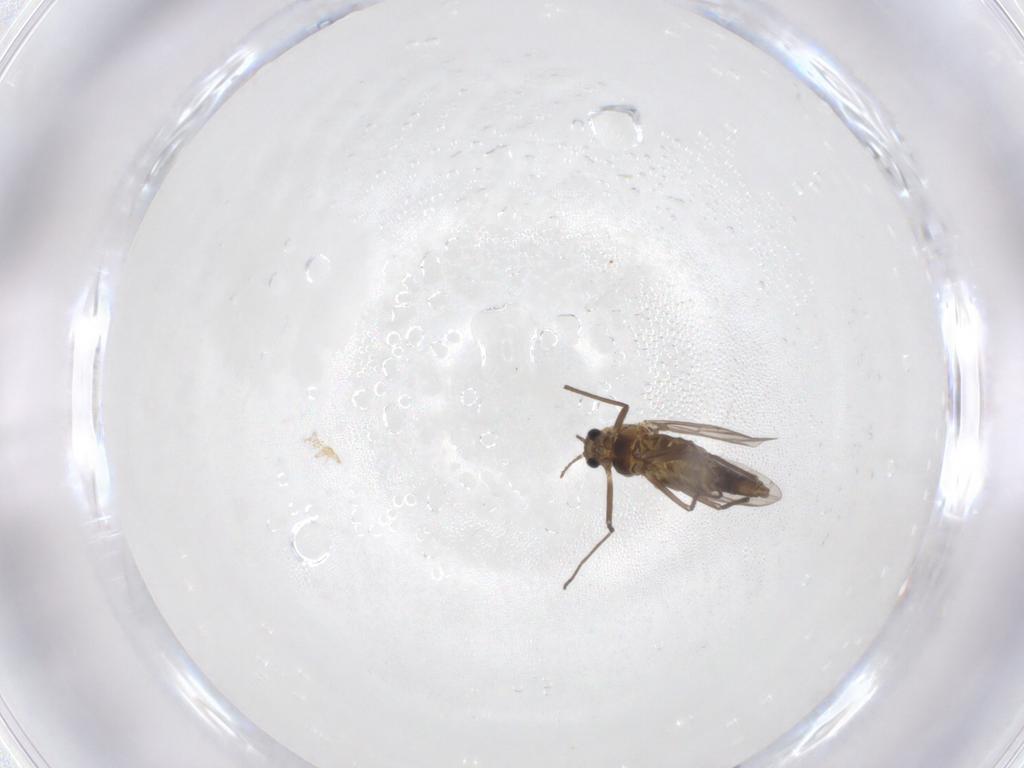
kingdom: Animalia
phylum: Arthropoda
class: Insecta
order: Diptera
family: Chironomidae
